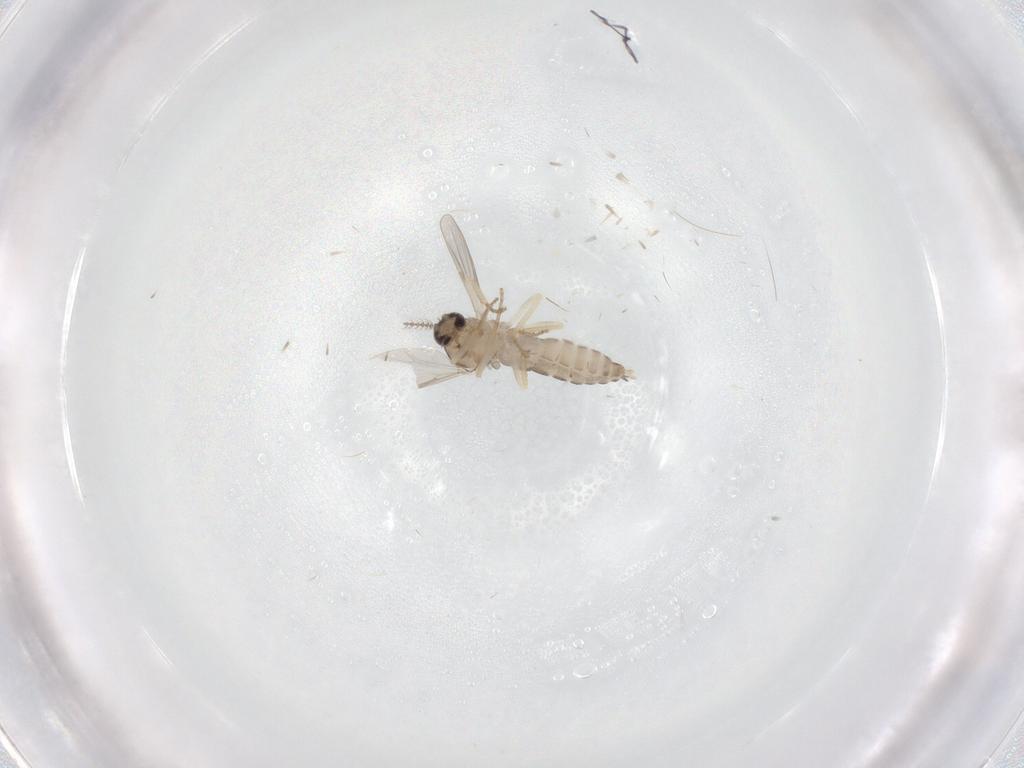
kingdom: Animalia
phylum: Arthropoda
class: Insecta
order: Diptera
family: Ceratopogonidae
